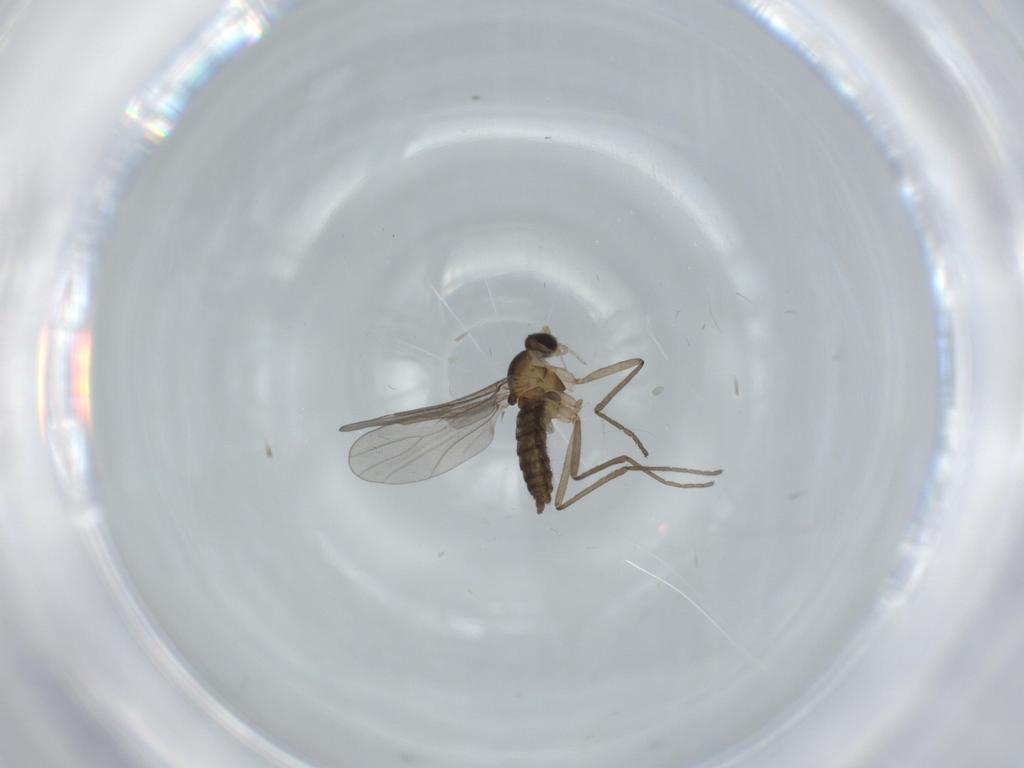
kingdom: Animalia
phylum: Arthropoda
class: Insecta
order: Diptera
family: Cecidomyiidae
